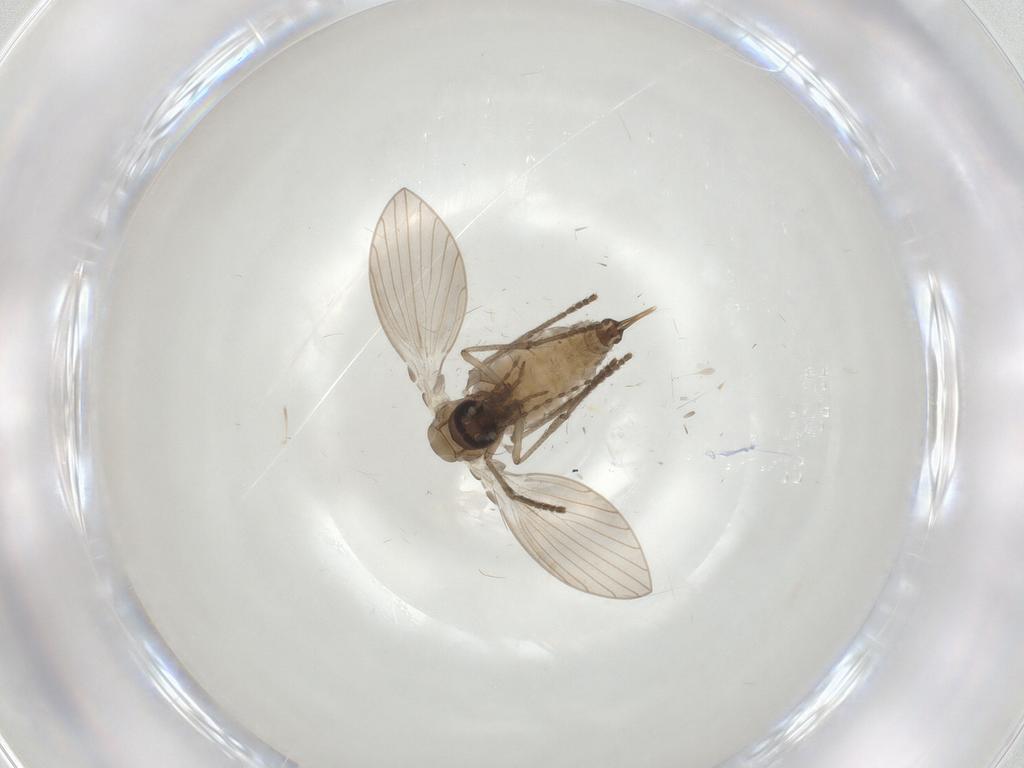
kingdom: Animalia
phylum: Arthropoda
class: Insecta
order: Diptera
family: Psychodidae
